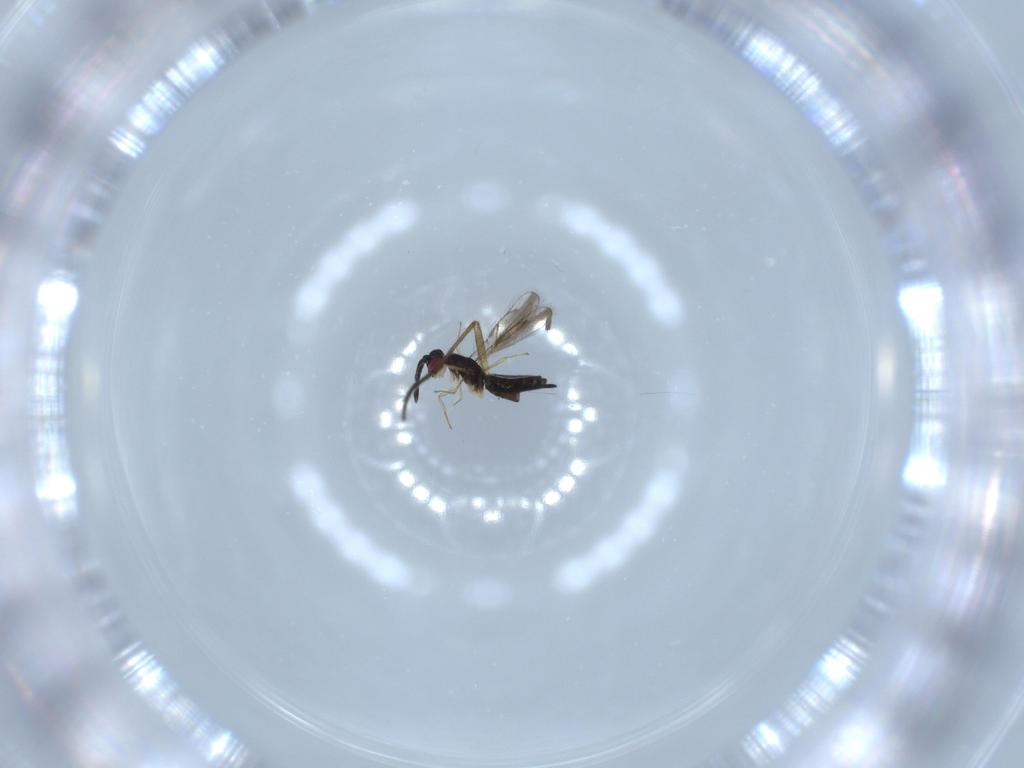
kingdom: Animalia
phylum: Arthropoda
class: Insecta
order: Hymenoptera
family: Pteromalidae
